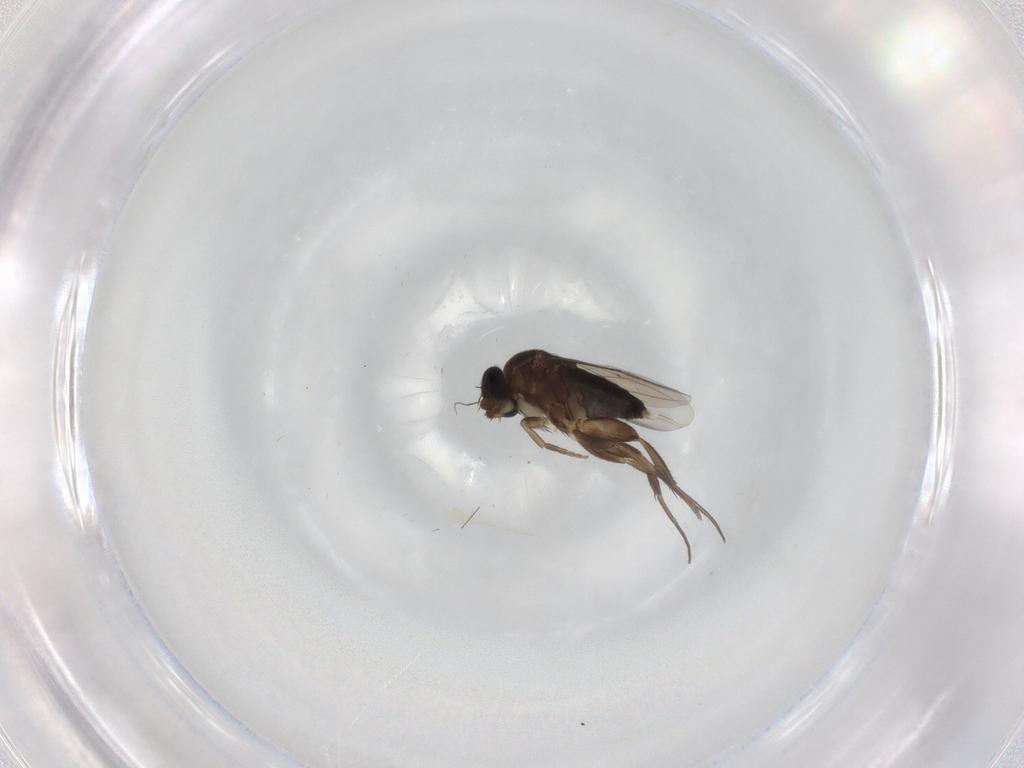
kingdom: Animalia
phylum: Arthropoda
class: Insecta
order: Diptera
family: Phoridae
